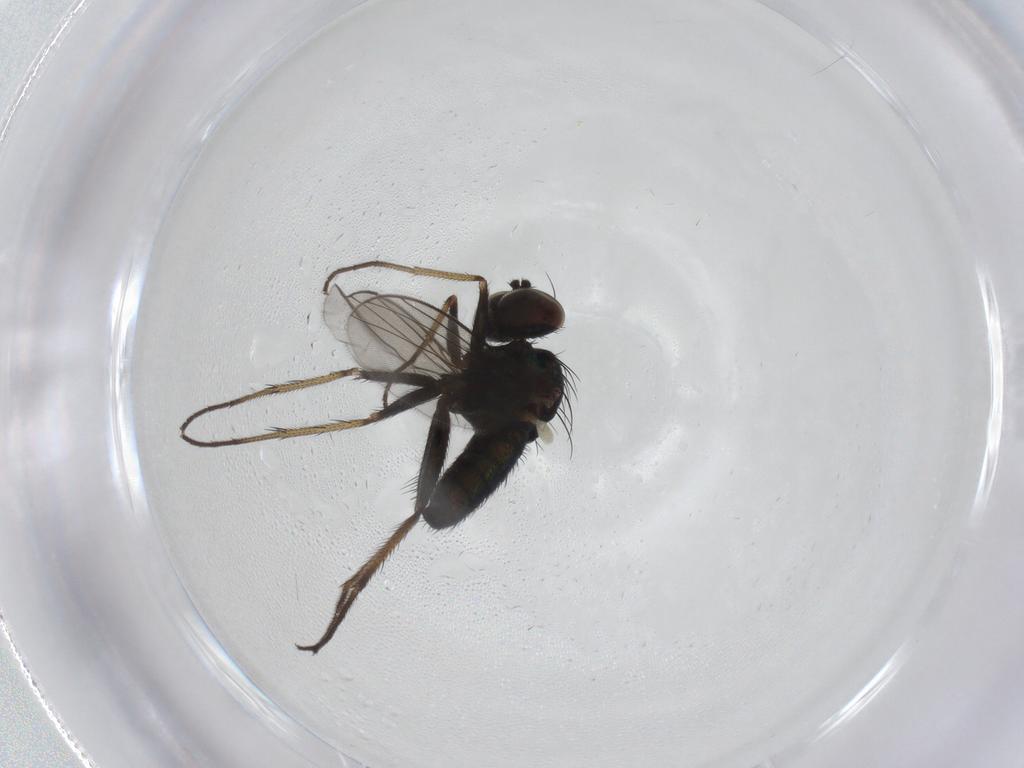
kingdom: Animalia
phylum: Arthropoda
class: Insecta
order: Diptera
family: Dolichopodidae
